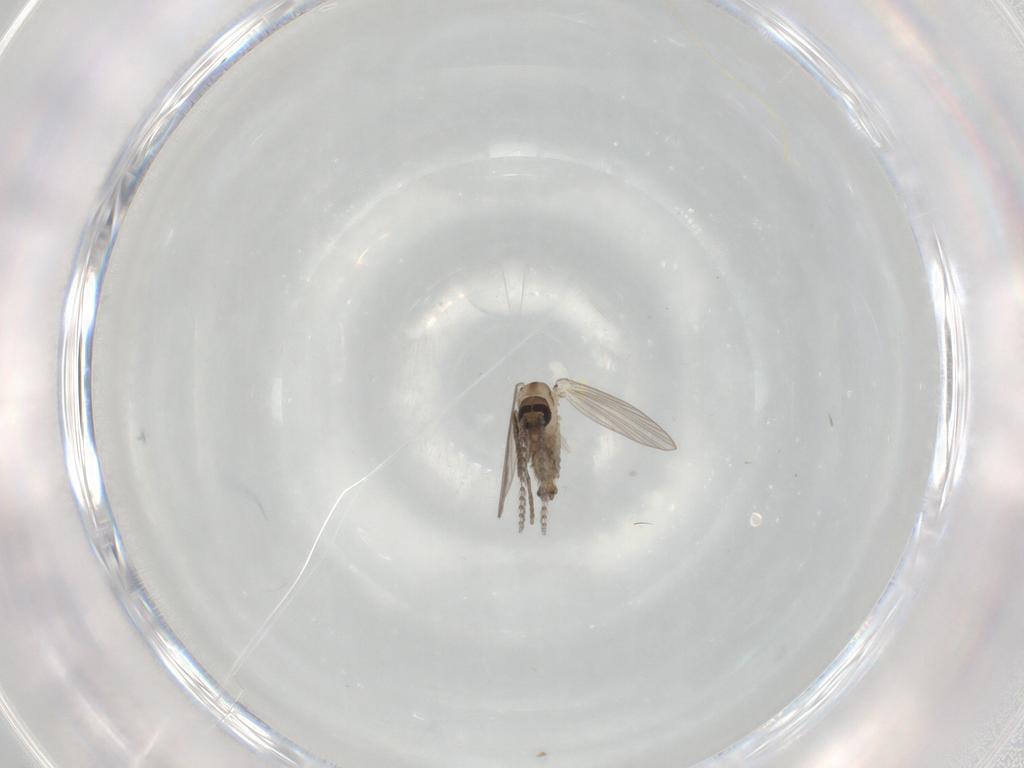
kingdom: Animalia
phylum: Arthropoda
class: Insecta
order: Diptera
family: Psychodidae
